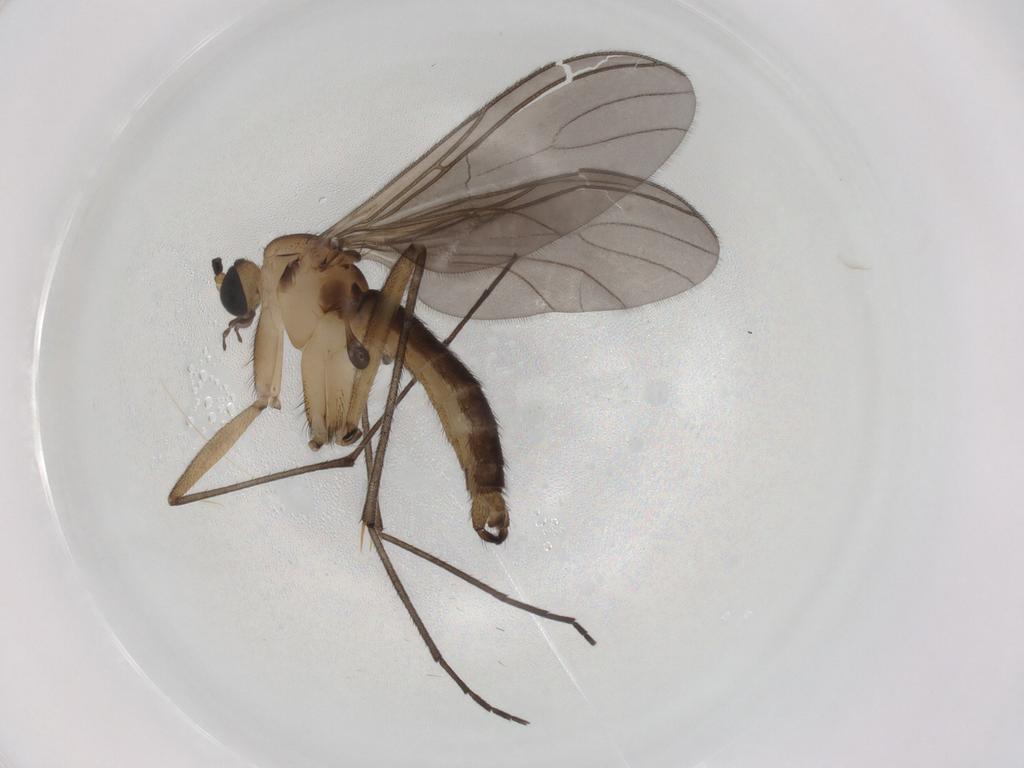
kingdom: Animalia
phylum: Arthropoda
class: Insecta
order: Diptera
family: Sciaridae
